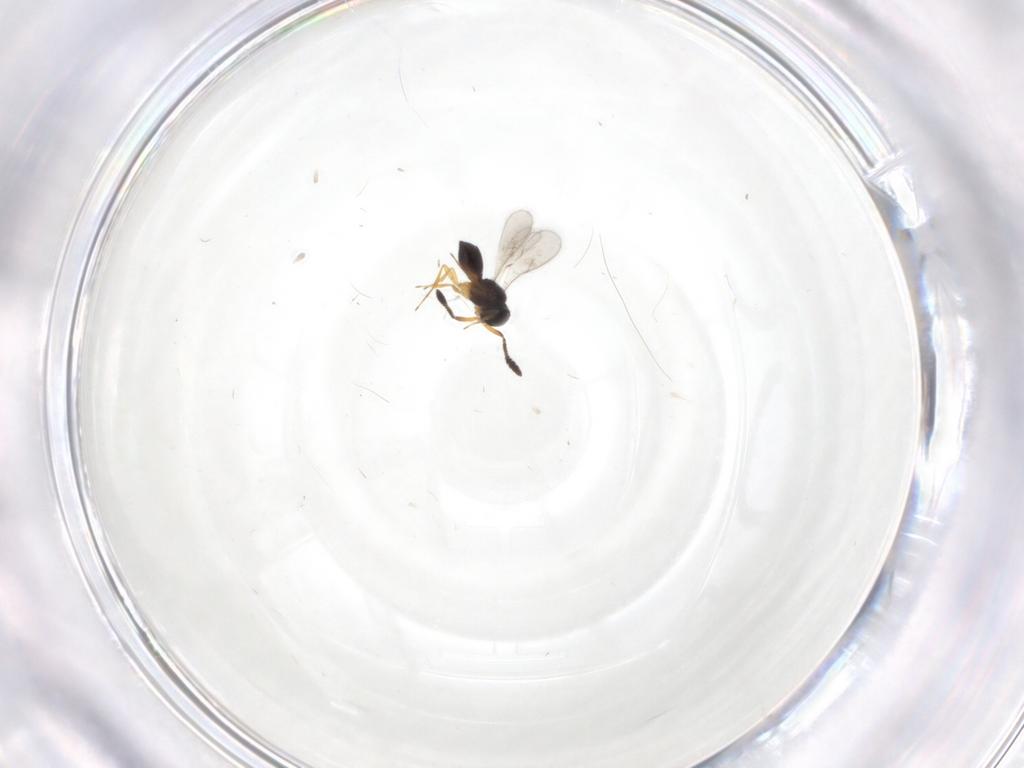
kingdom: Animalia
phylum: Arthropoda
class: Insecta
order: Hymenoptera
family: Scelionidae
